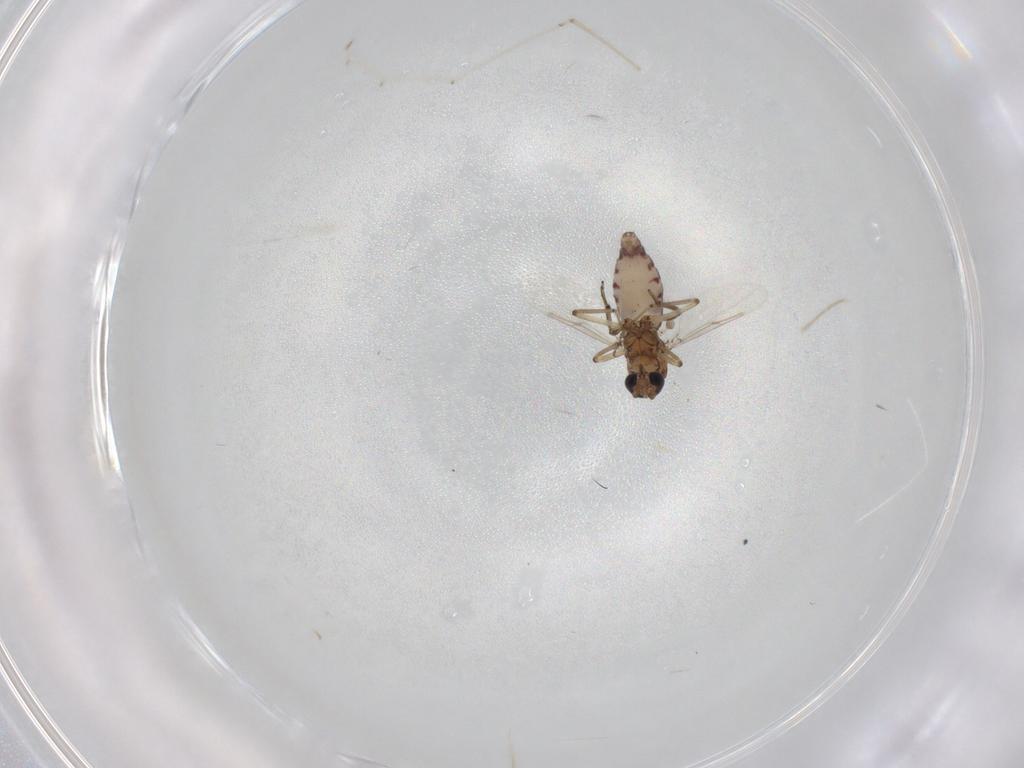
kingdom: Animalia
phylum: Arthropoda
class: Insecta
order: Diptera
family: Ceratopogonidae
